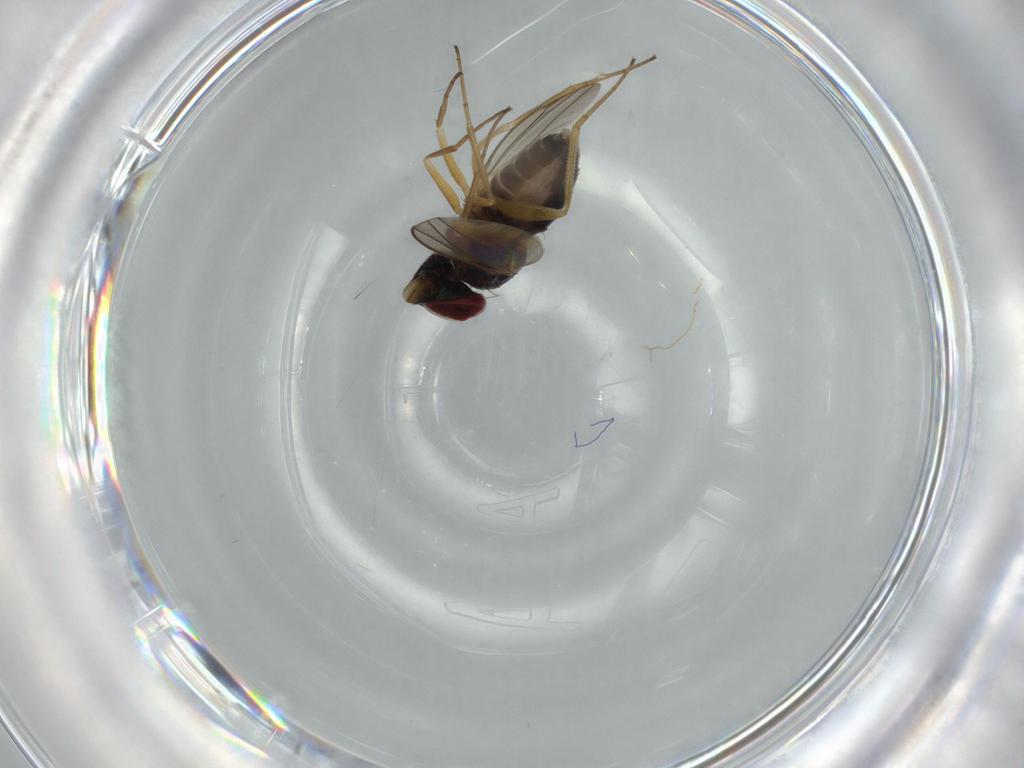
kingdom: Animalia
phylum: Arthropoda
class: Insecta
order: Diptera
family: Dolichopodidae
